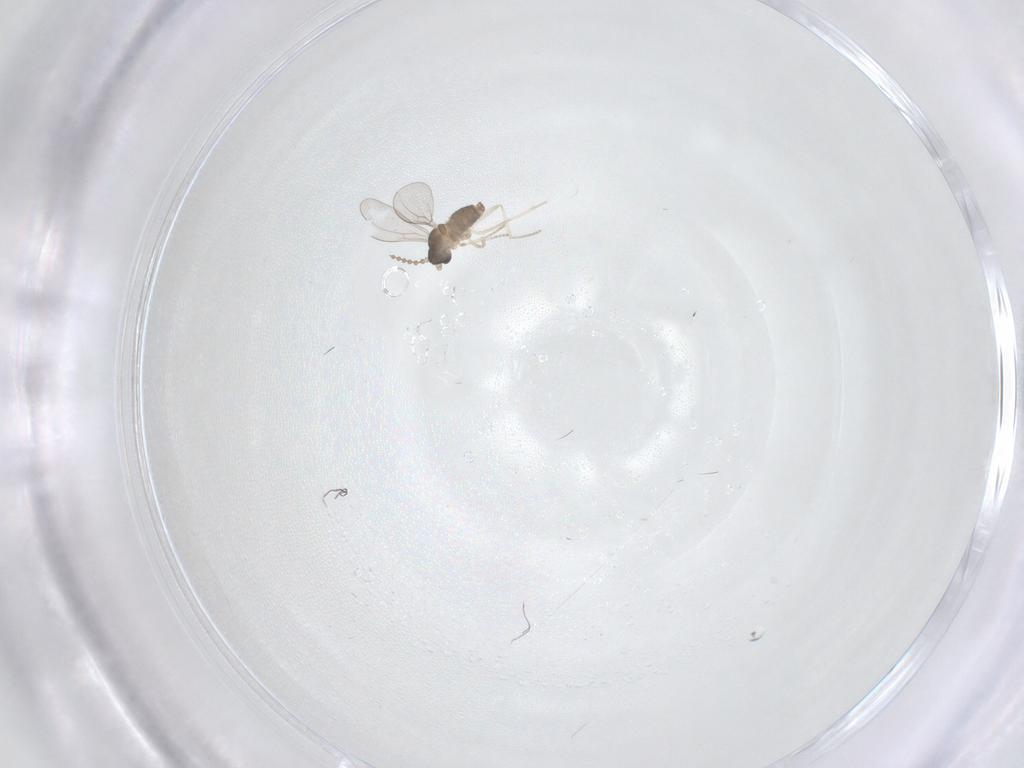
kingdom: Animalia
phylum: Arthropoda
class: Insecta
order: Diptera
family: Cecidomyiidae
